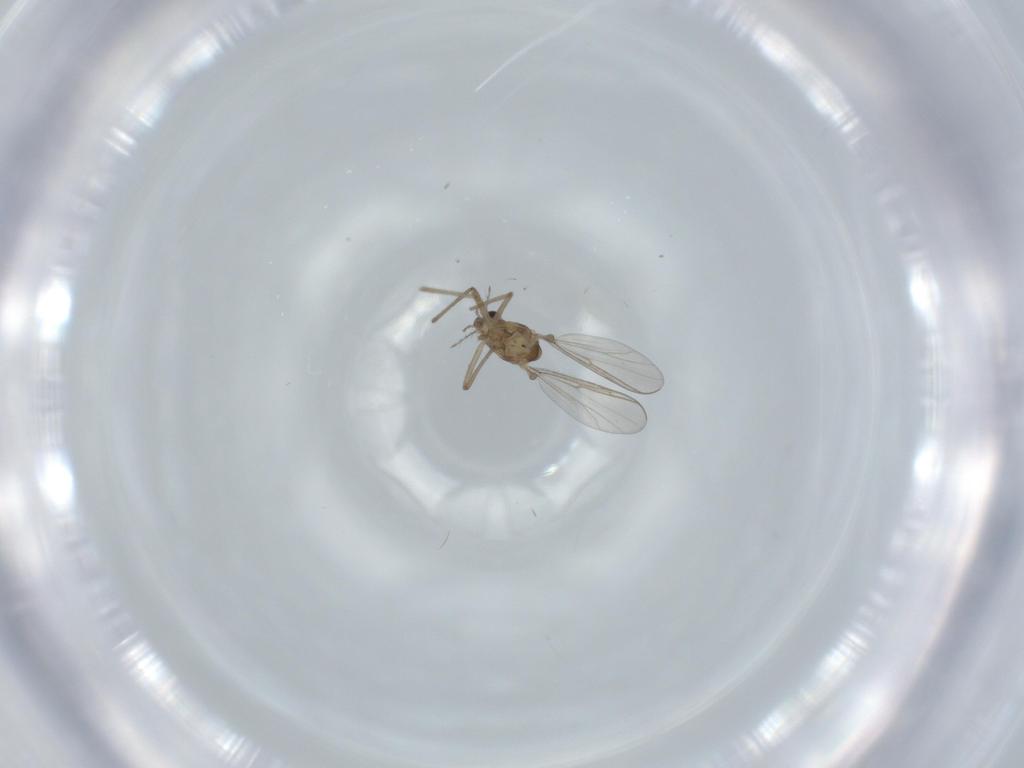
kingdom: Animalia
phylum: Arthropoda
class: Insecta
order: Diptera
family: Chironomidae
